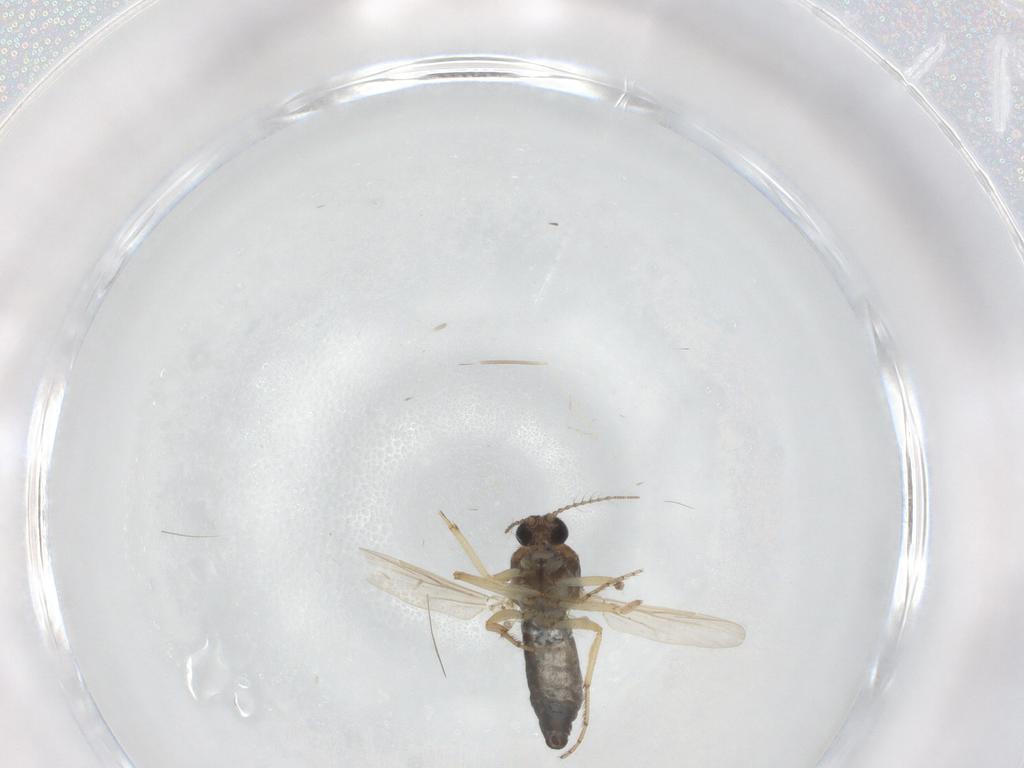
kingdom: Animalia
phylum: Arthropoda
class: Insecta
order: Diptera
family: Ceratopogonidae
